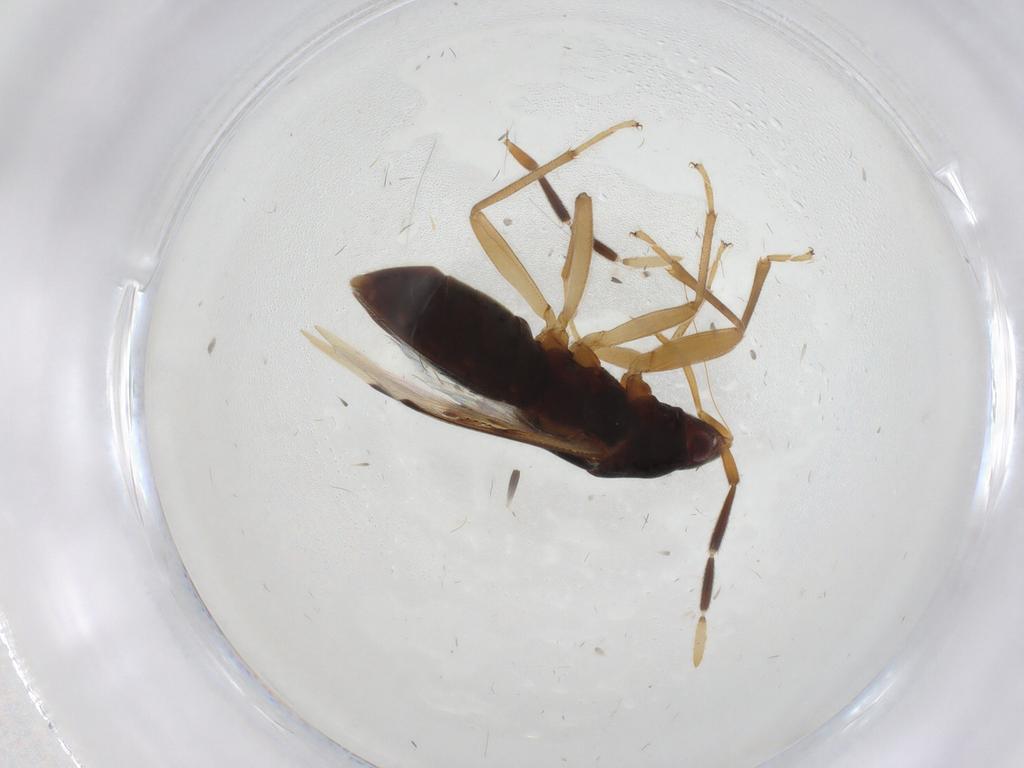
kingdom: Animalia
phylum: Arthropoda
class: Insecta
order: Hemiptera
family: Rhyparochromidae
